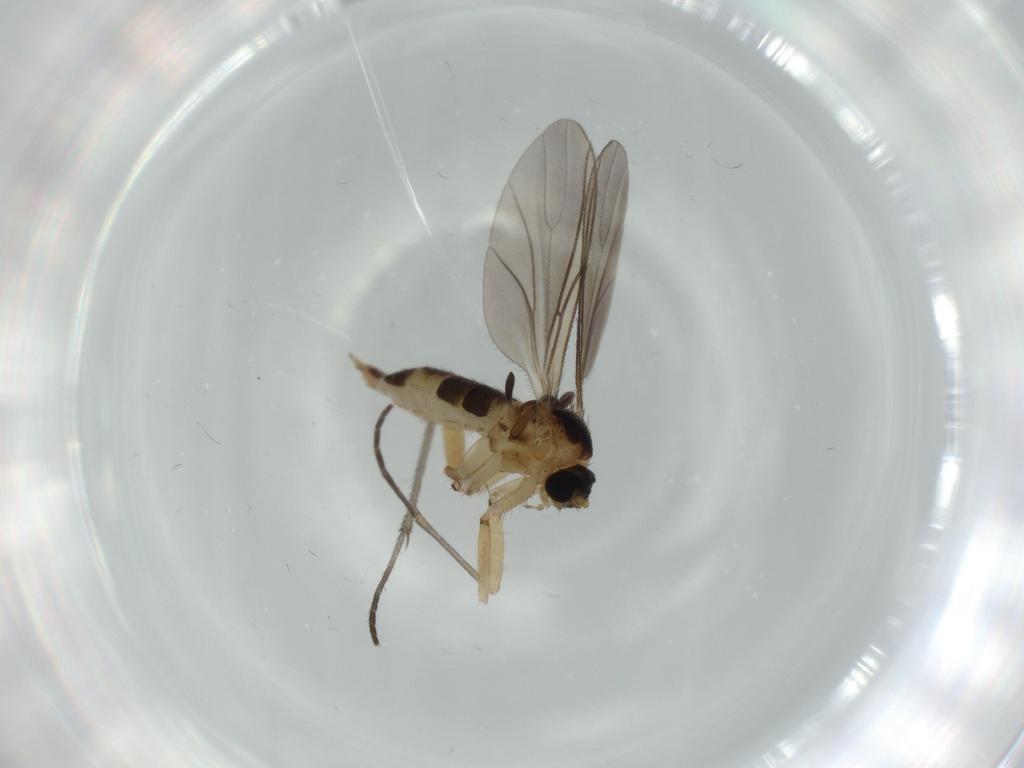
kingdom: Animalia
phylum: Arthropoda
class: Insecta
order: Diptera
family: Sciaridae
